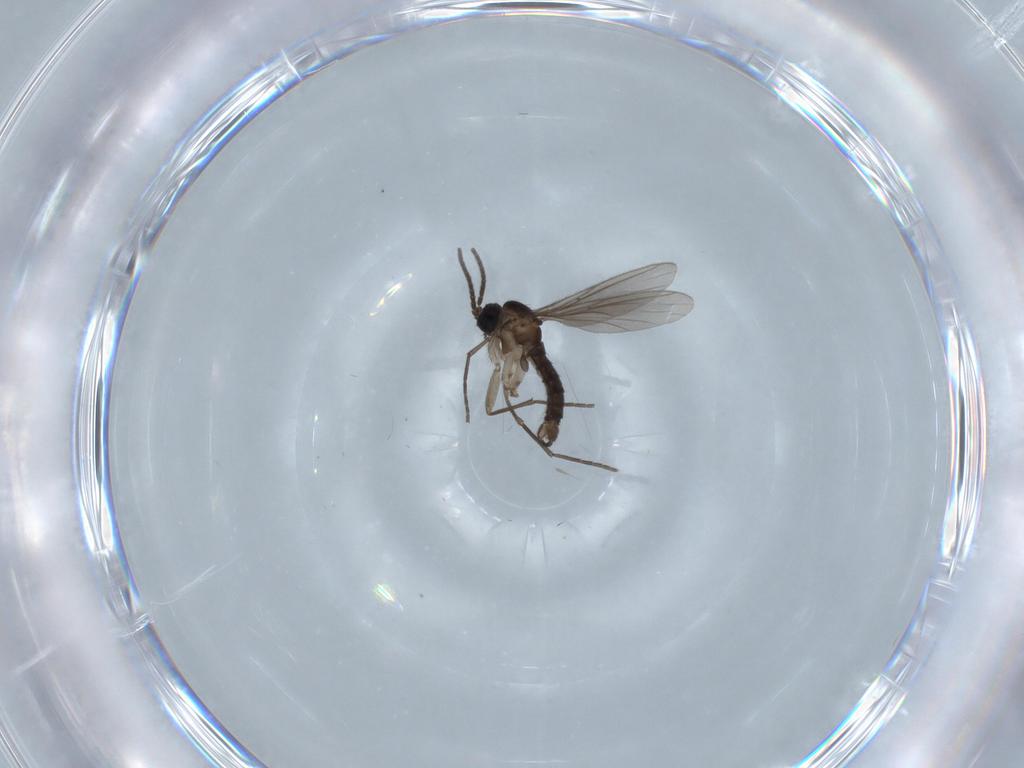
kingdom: Animalia
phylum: Arthropoda
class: Insecta
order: Diptera
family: Sciaridae
